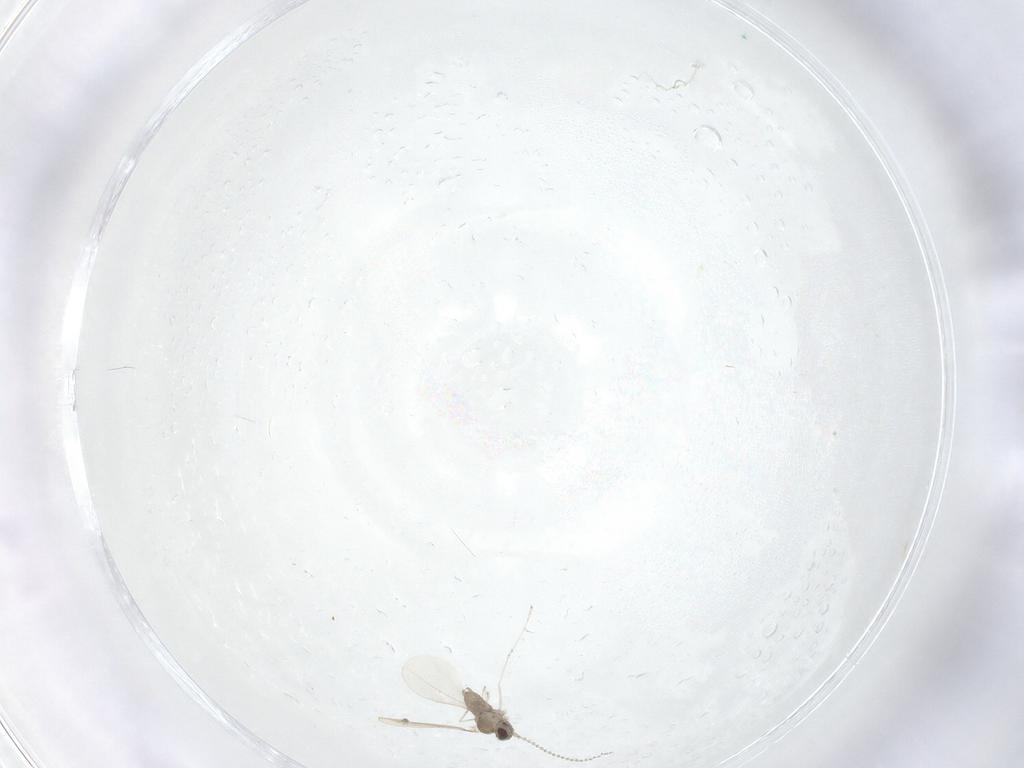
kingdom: Animalia
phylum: Arthropoda
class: Insecta
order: Diptera
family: Cecidomyiidae
